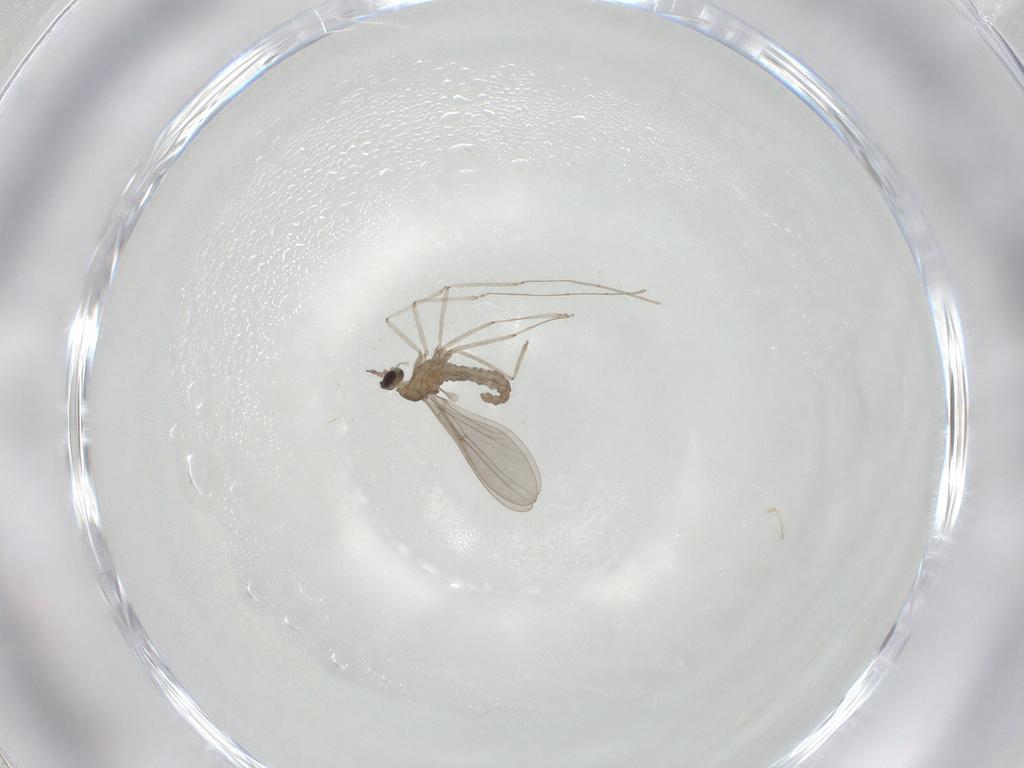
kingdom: Animalia
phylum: Arthropoda
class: Insecta
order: Diptera
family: Cecidomyiidae
